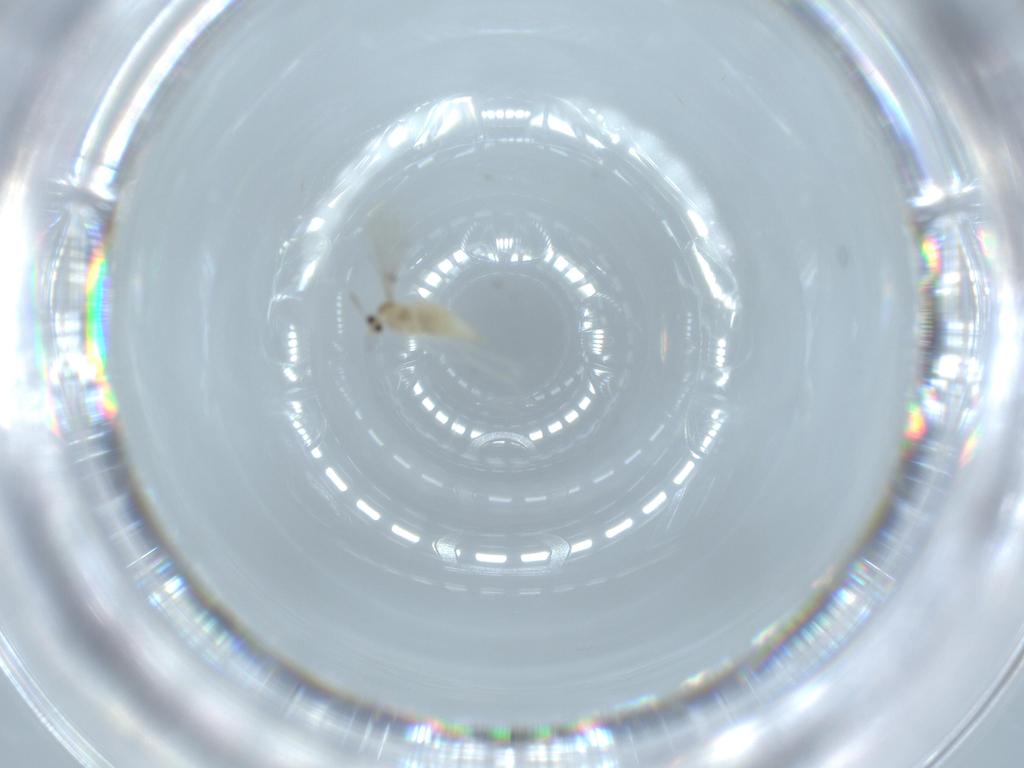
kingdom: Animalia
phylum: Arthropoda
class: Insecta
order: Diptera
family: Cecidomyiidae
